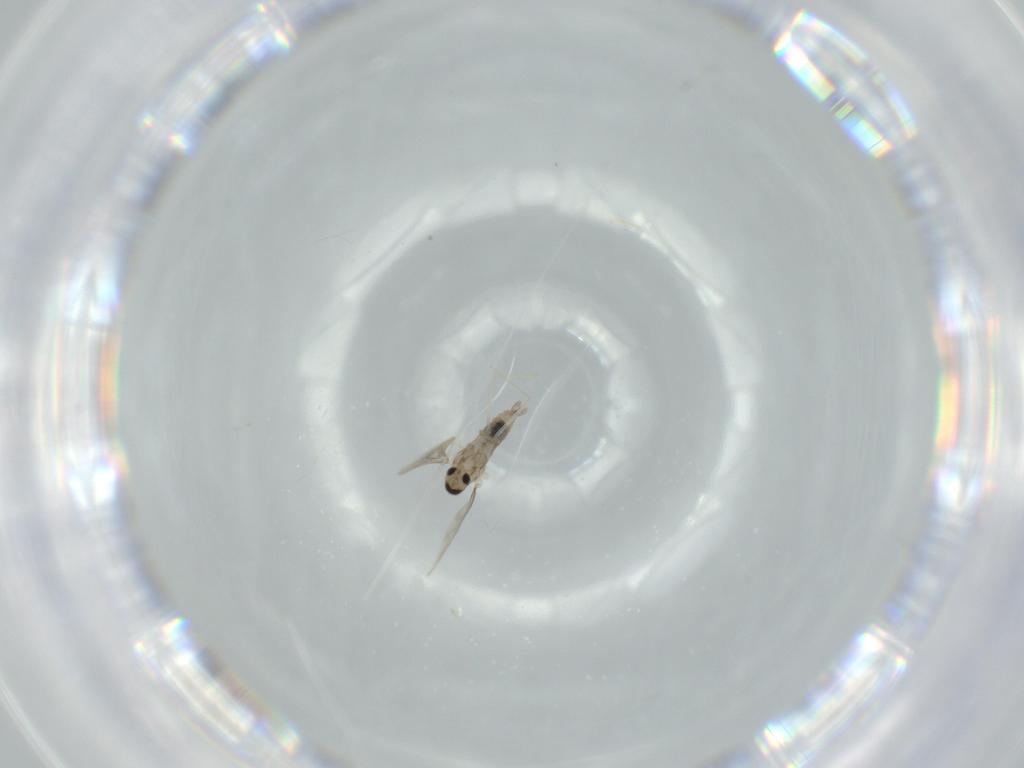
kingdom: Animalia
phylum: Arthropoda
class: Insecta
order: Diptera
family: Cecidomyiidae
